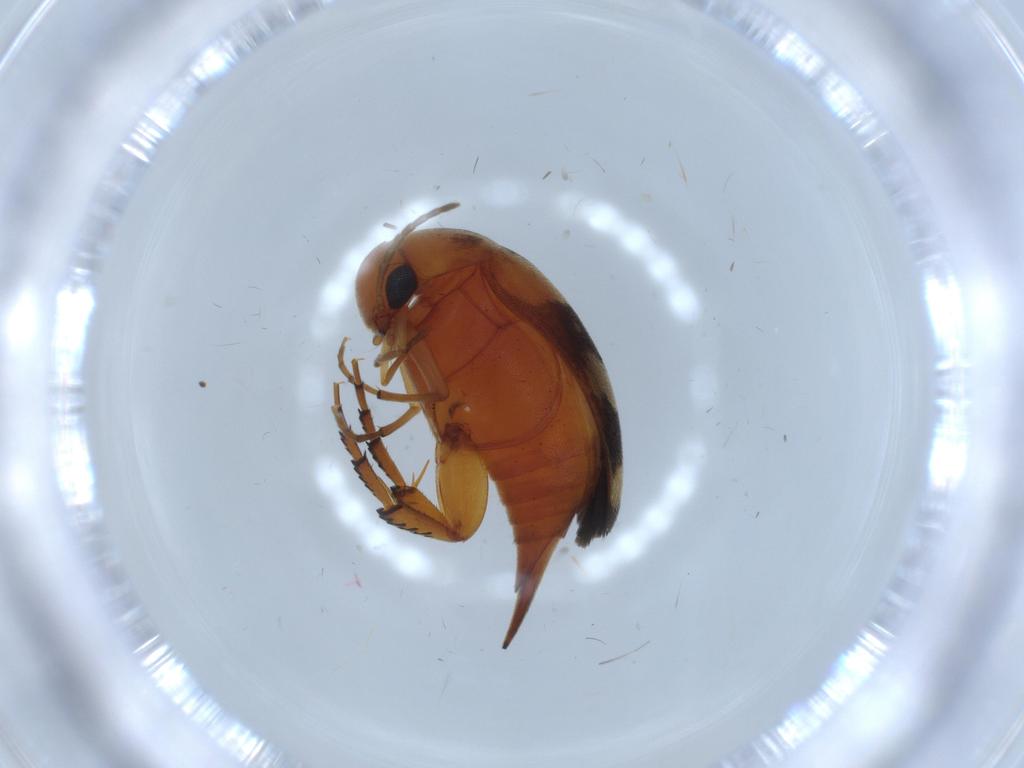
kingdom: Animalia
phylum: Arthropoda
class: Insecta
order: Coleoptera
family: Mordellidae
